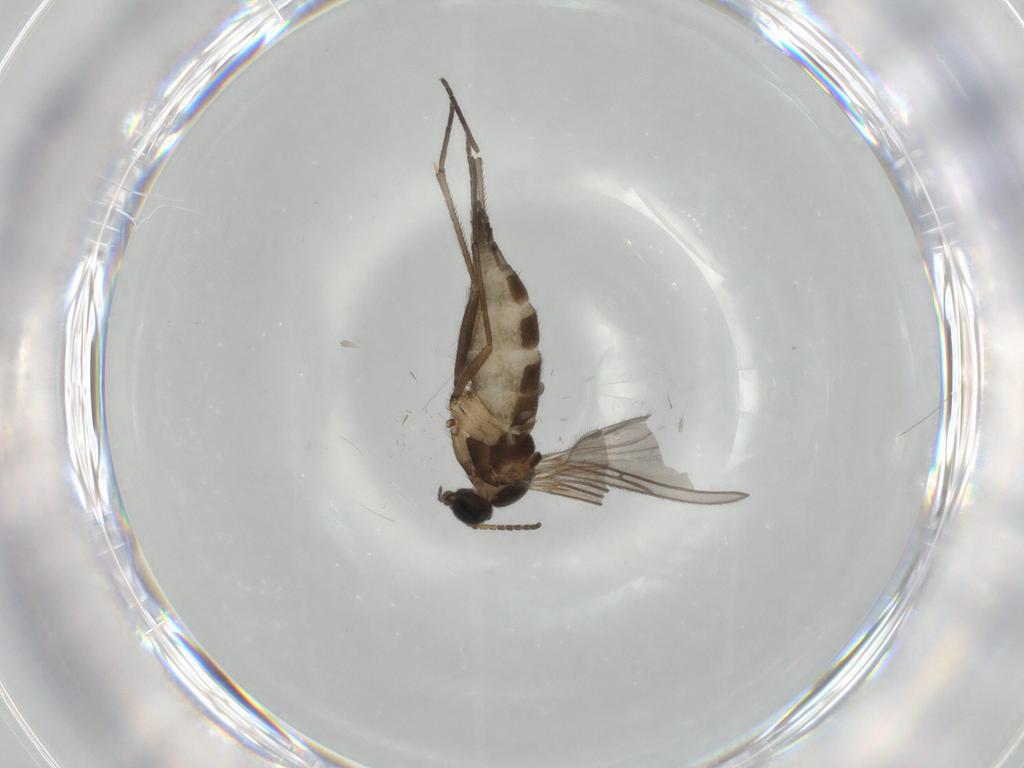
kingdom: Animalia
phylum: Arthropoda
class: Insecta
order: Diptera
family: Sciaridae
